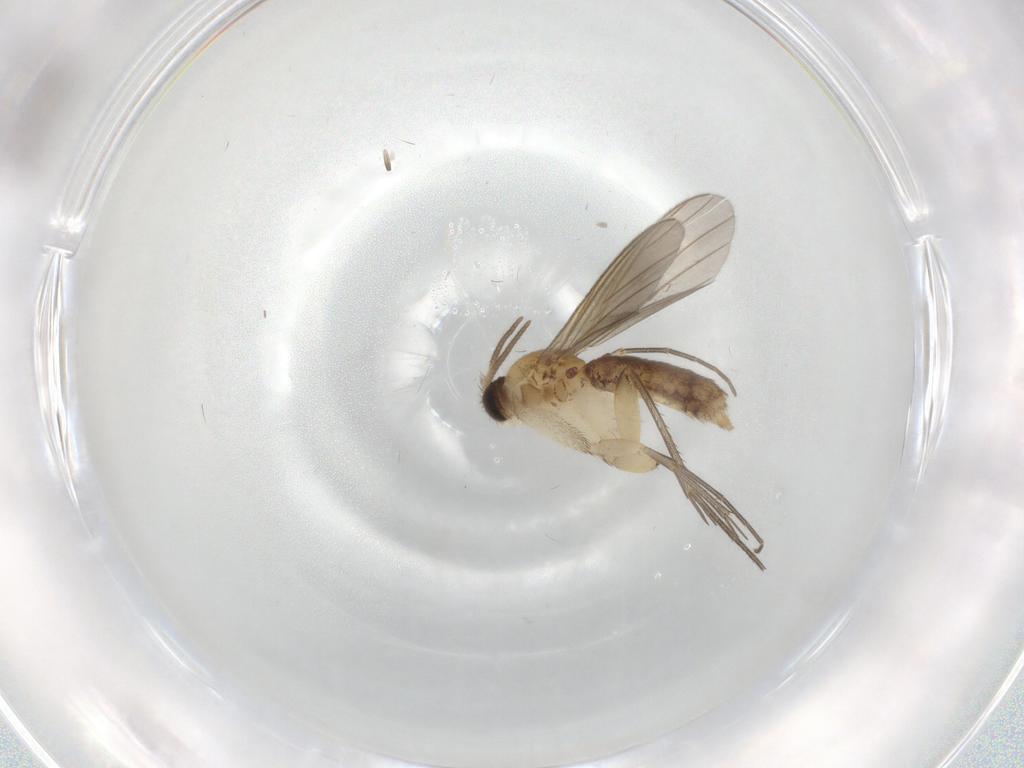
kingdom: Animalia
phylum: Arthropoda
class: Insecta
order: Diptera
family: Mycetophilidae
